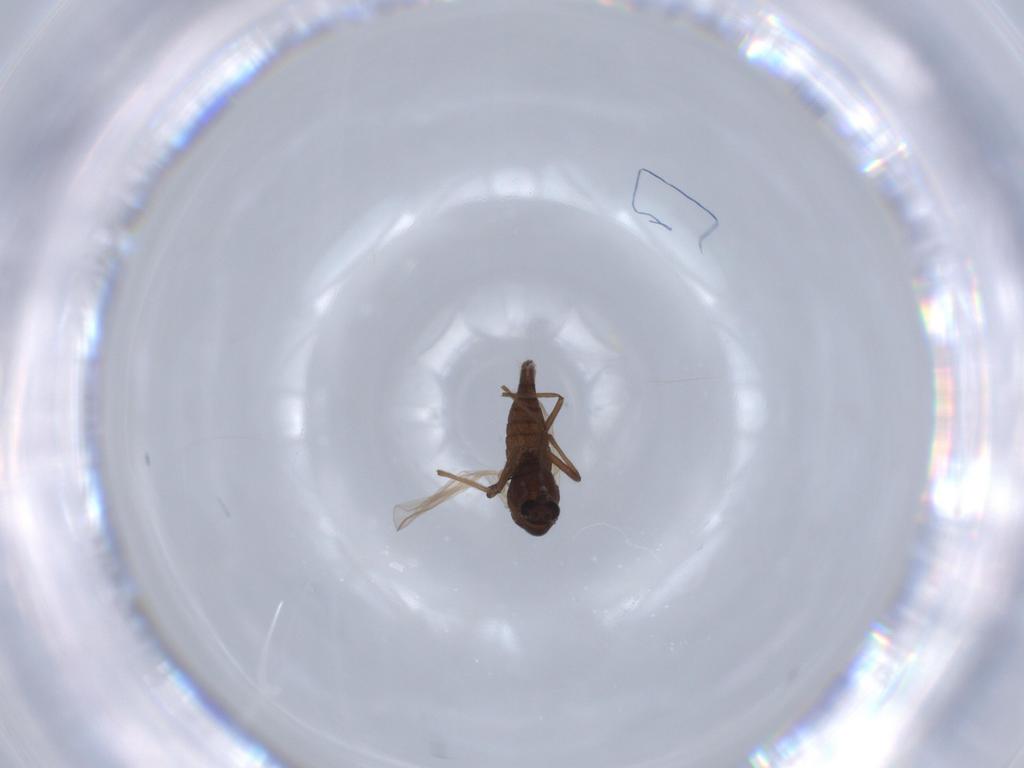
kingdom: Animalia
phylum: Arthropoda
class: Insecta
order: Diptera
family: Empididae
